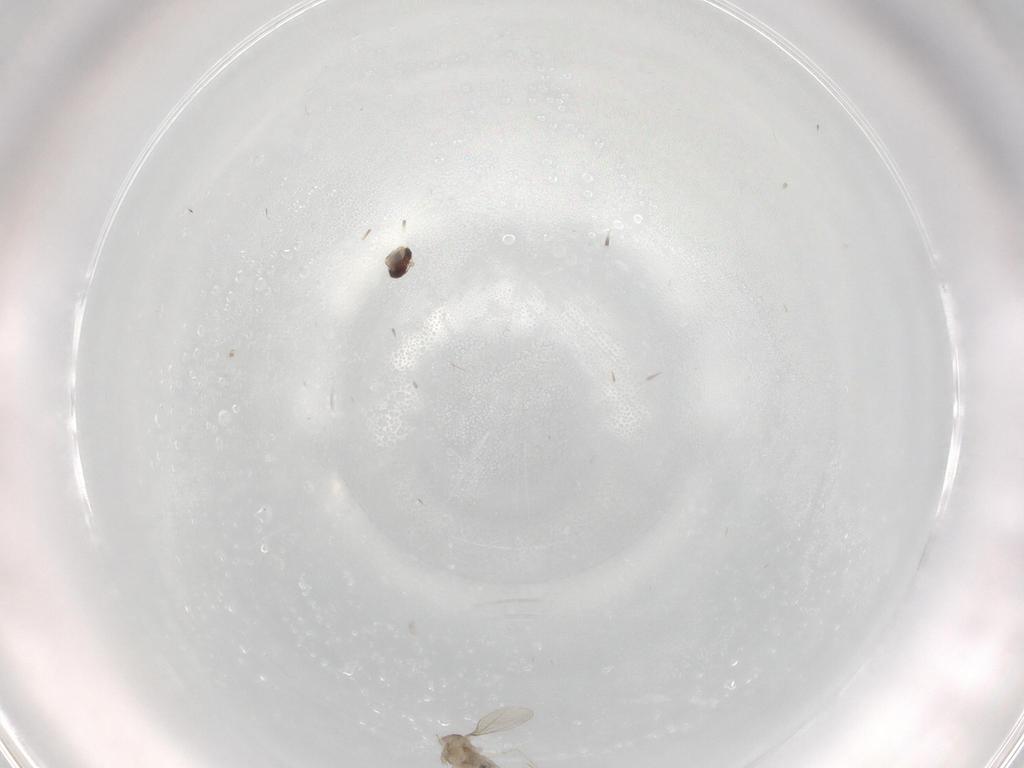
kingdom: Animalia
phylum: Arthropoda
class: Insecta
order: Diptera
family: Cecidomyiidae
